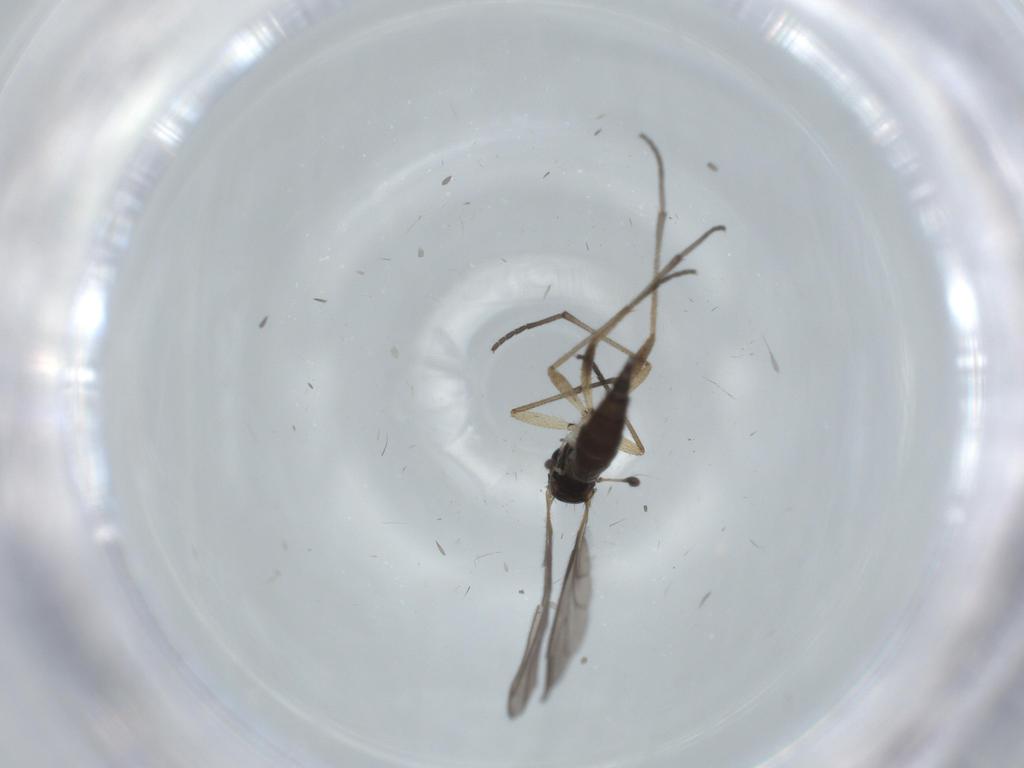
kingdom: Animalia
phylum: Arthropoda
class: Insecta
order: Diptera
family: Sciaridae
